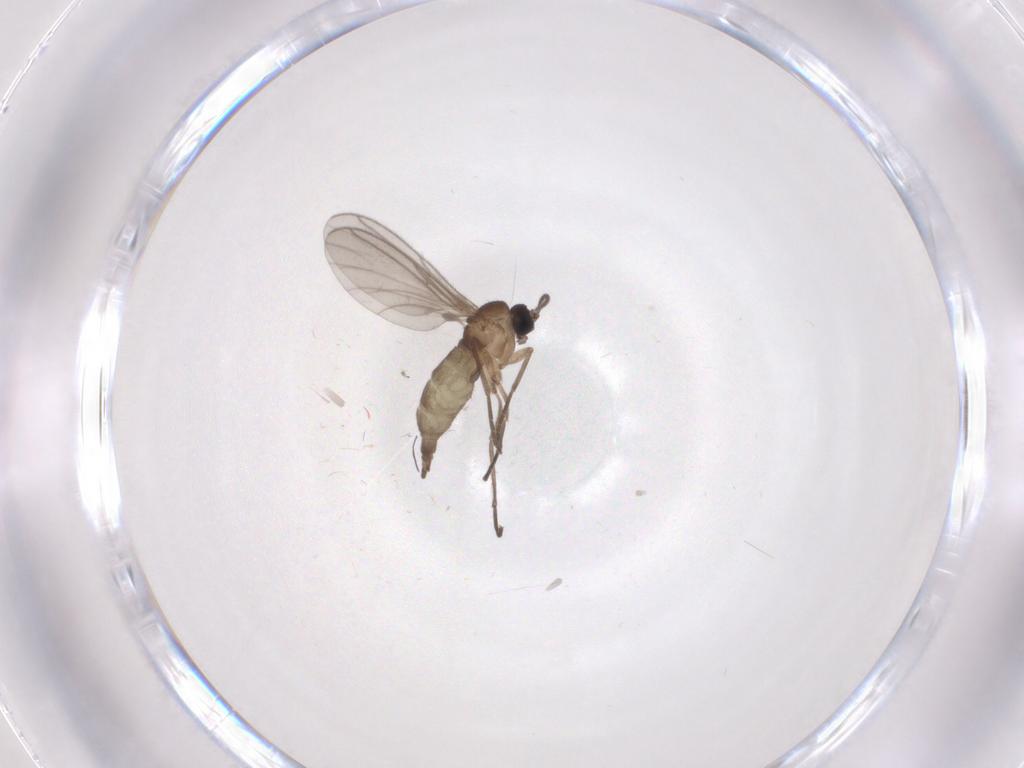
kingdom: Animalia
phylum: Arthropoda
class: Insecta
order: Diptera
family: Sciaridae
